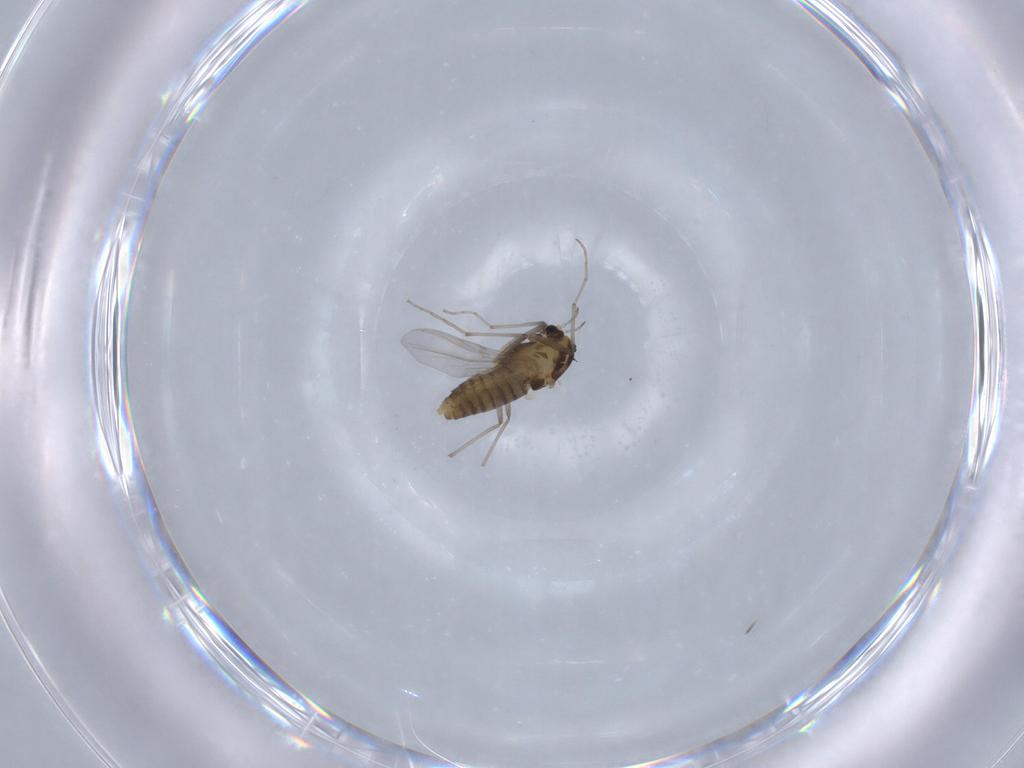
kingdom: Animalia
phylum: Arthropoda
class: Insecta
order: Diptera
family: Chironomidae
